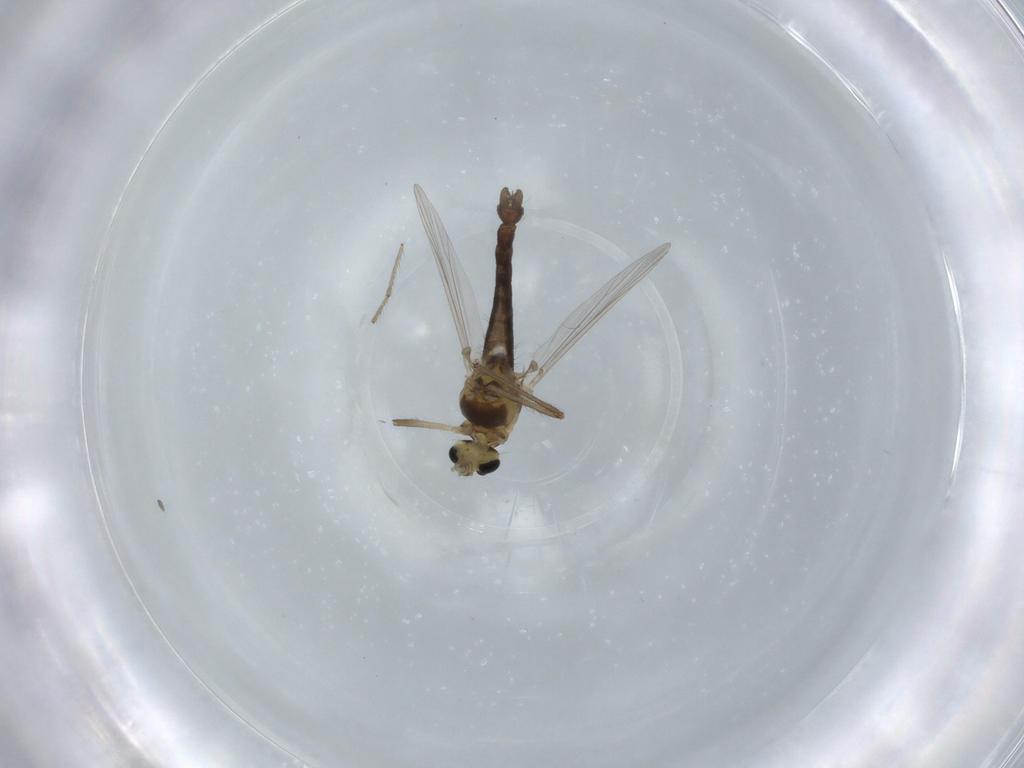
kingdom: Animalia
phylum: Arthropoda
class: Insecta
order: Diptera
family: Chironomidae
